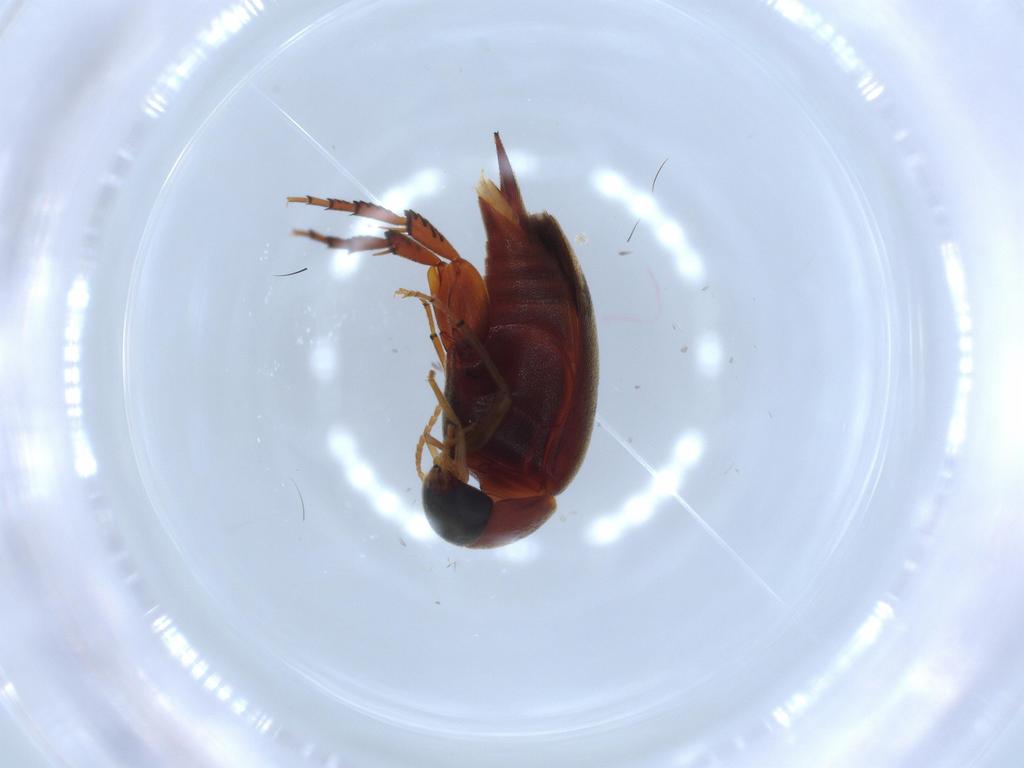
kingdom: Animalia
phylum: Arthropoda
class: Insecta
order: Coleoptera
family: Mordellidae
